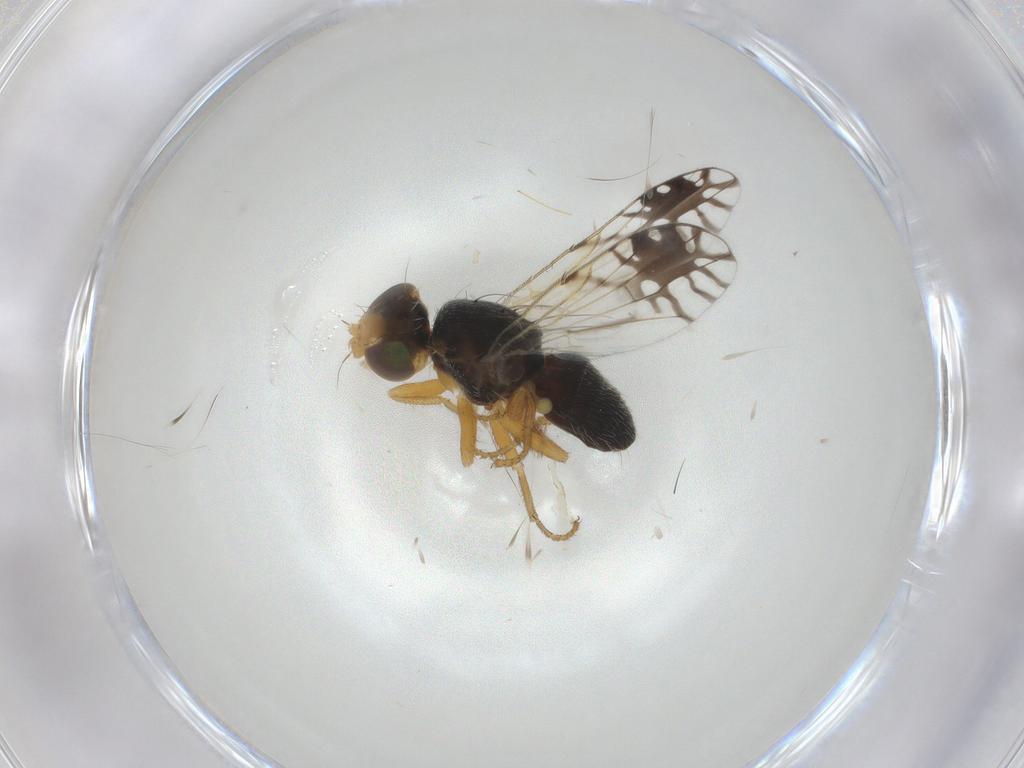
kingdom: Animalia
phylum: Arthropoda
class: Insecta
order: Diptera
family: Tephritidae
